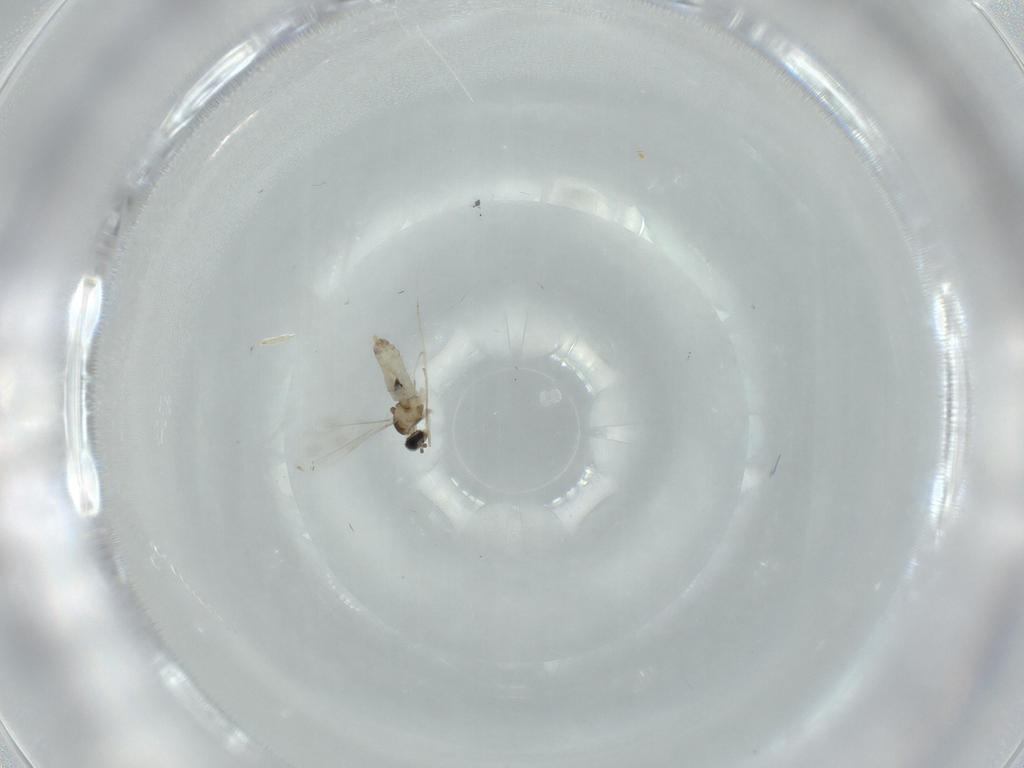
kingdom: Animalia
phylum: Arthropoda
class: Insecta
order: Diptera
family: Cecidomyiidae
